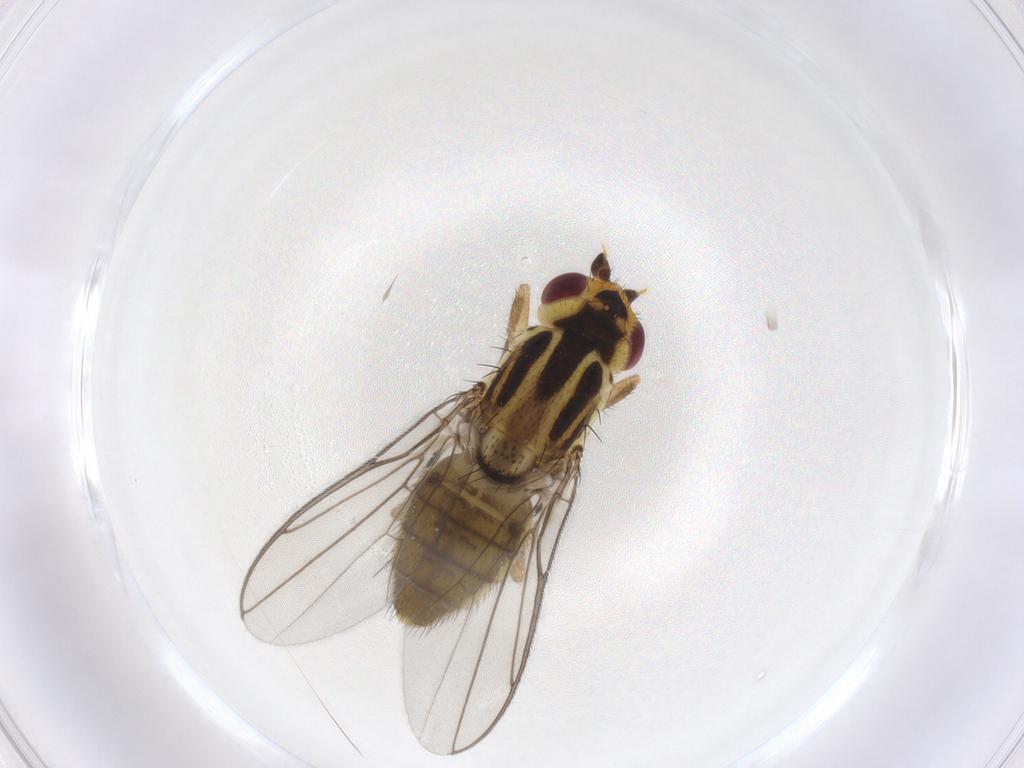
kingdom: Animalia
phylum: Arthropoda
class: Insecta
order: Diptera
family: Chloropidae
